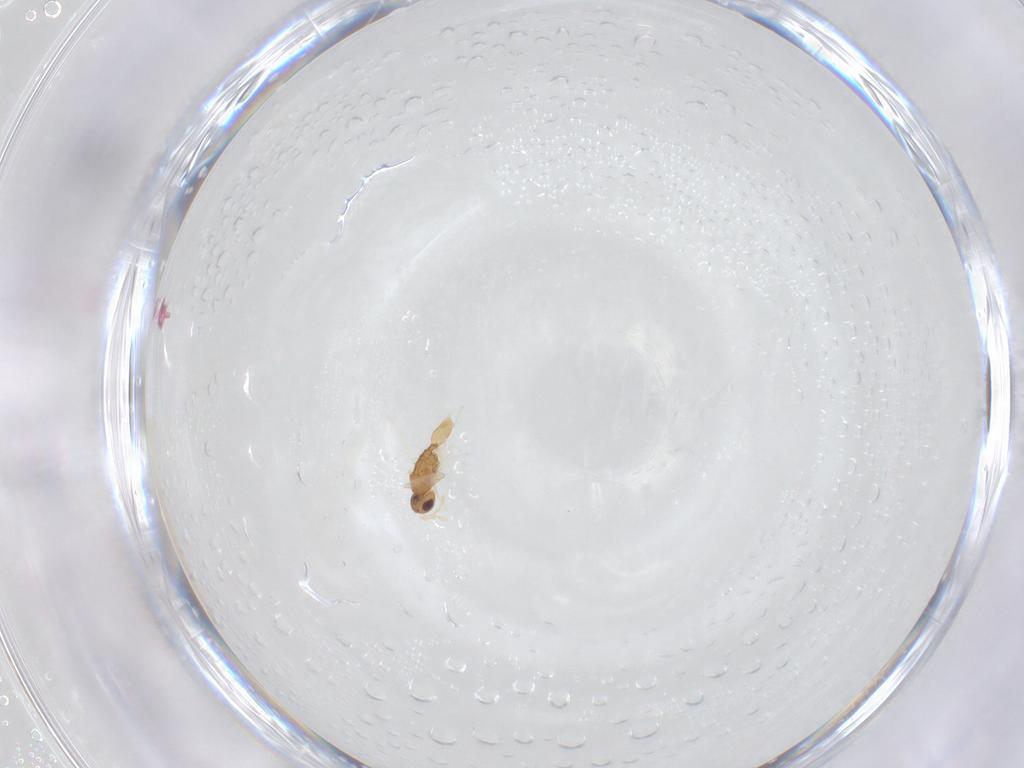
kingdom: Animalia
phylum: Arthropoda
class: Insecta
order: Hymenoptera
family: Eulophidae
